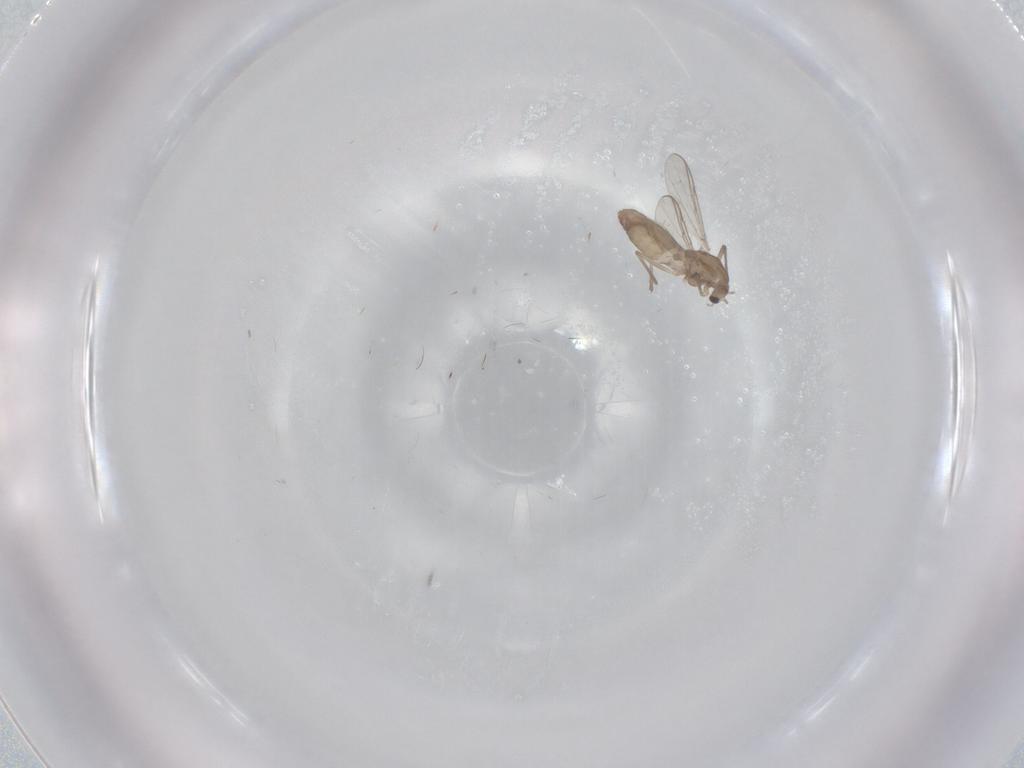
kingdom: Animalia
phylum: Arthropoda
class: Insecta
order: Diptera
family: Chironomidae
